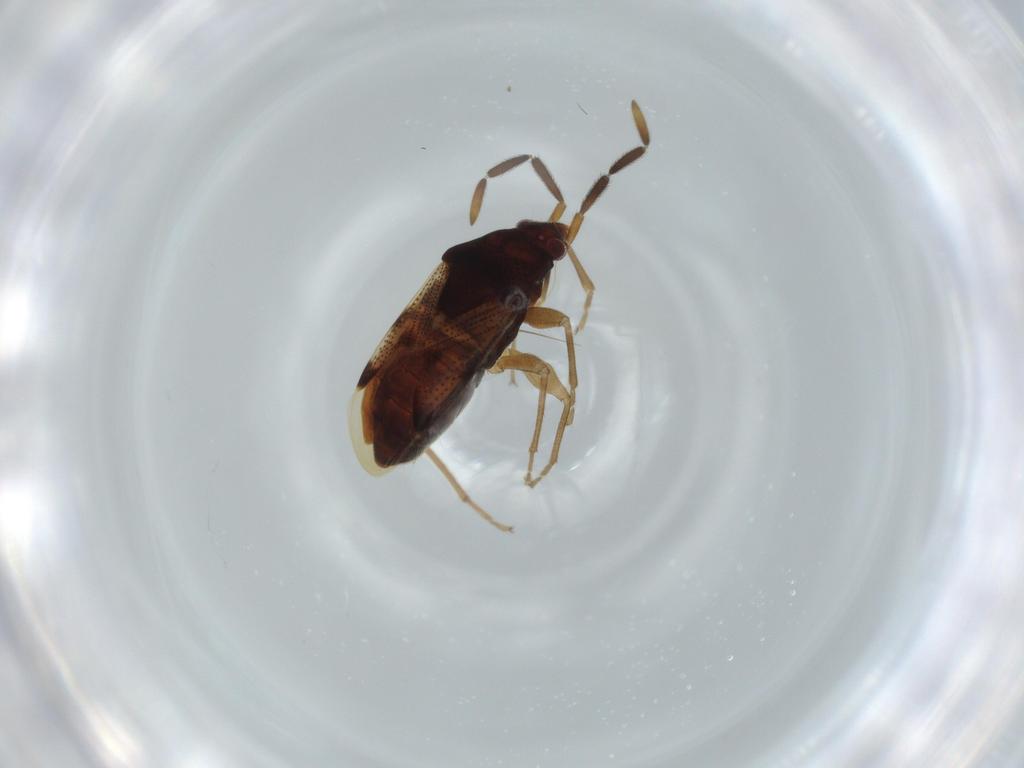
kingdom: Animalia
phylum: Arthropoda
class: Insecta
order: Hemiptera
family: Rhyparochromidae
